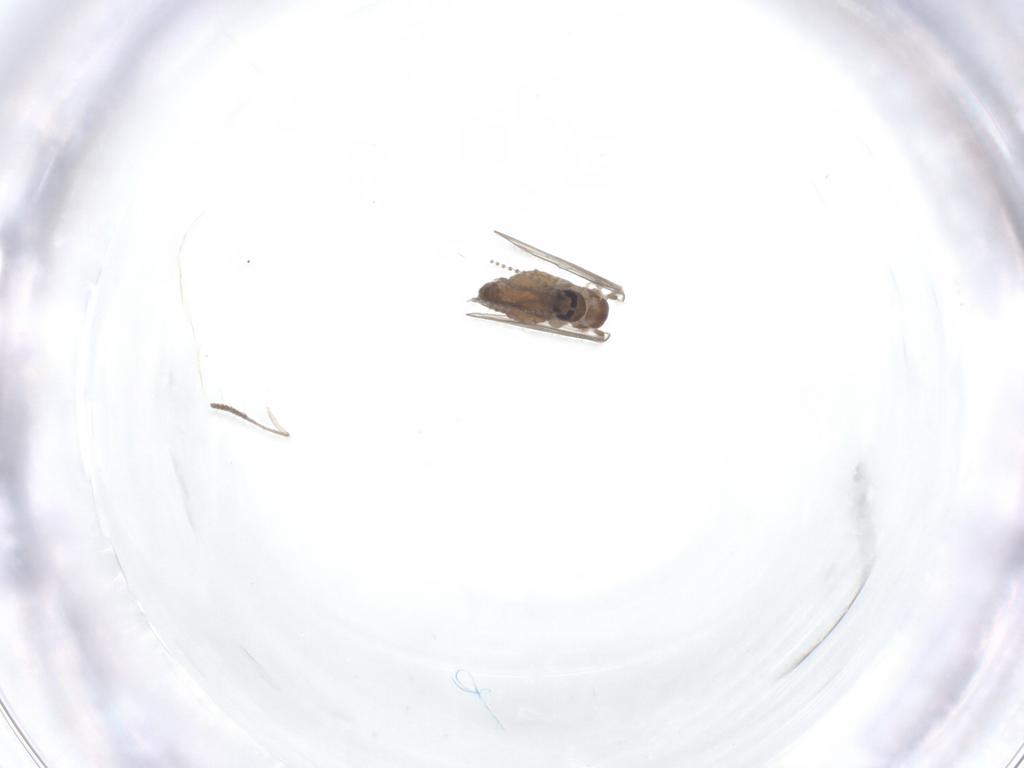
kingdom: Animalia
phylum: Arthropoda
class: Insecta
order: Diptera
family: Psychodidae
